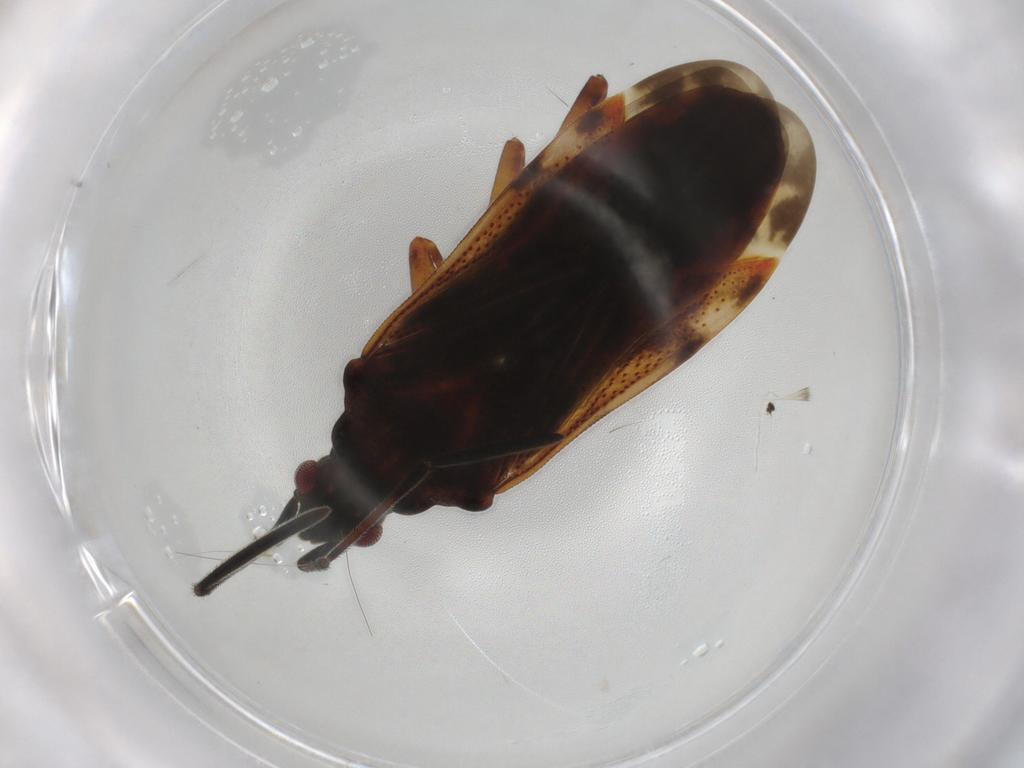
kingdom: Animalia
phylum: Arthropoda
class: Insecta
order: Hemiptera
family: Rhyparochromidae
